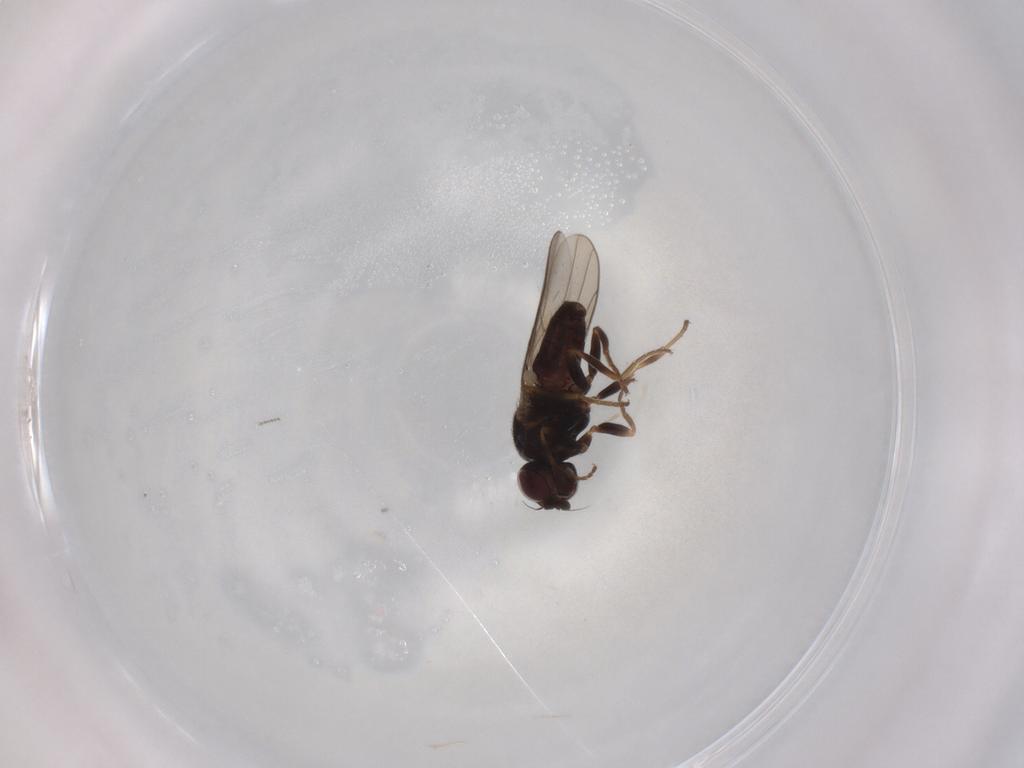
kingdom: Animalia
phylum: Arthropoda
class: Insecta
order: Diptera
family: Chloropidae
